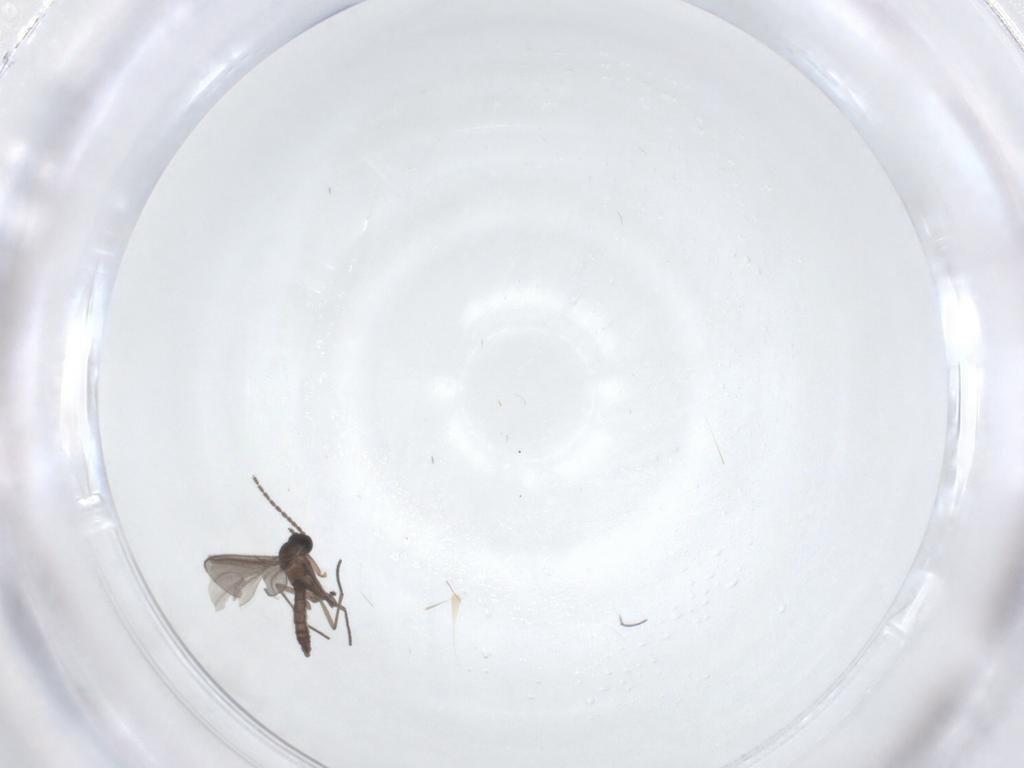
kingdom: Animalia
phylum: Arthropoda
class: Insecta
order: Diptera
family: Sciaridae
